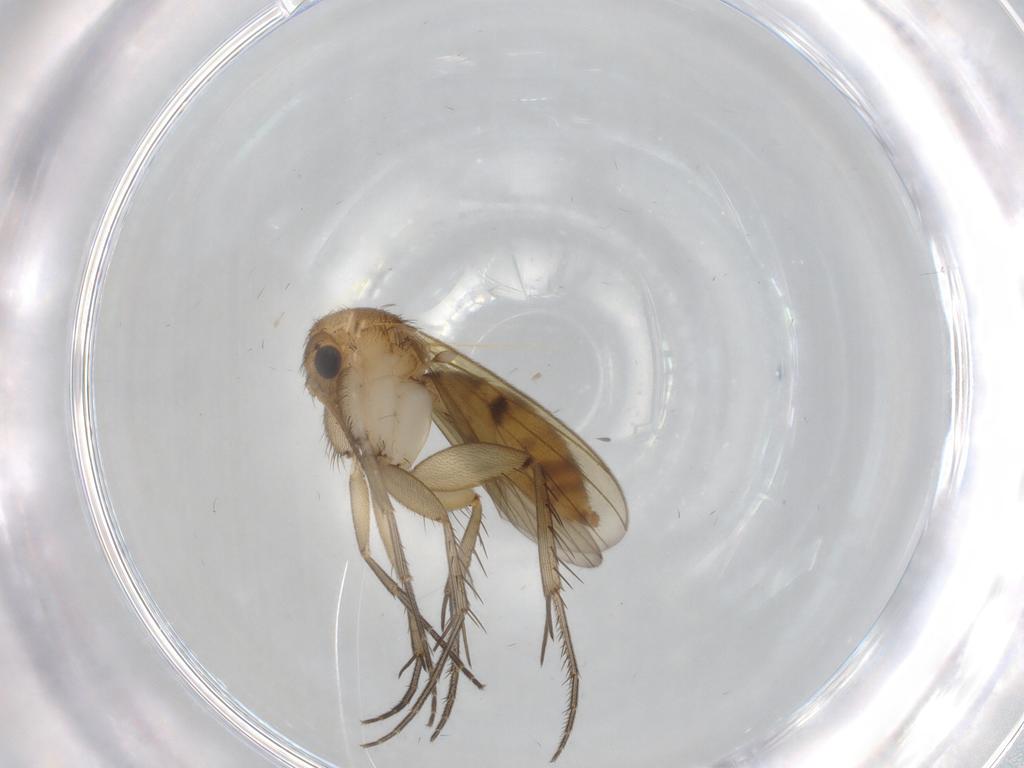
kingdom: Animalia
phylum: Arthropoda
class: Insecta
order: Diptera
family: Mycetophilidae
